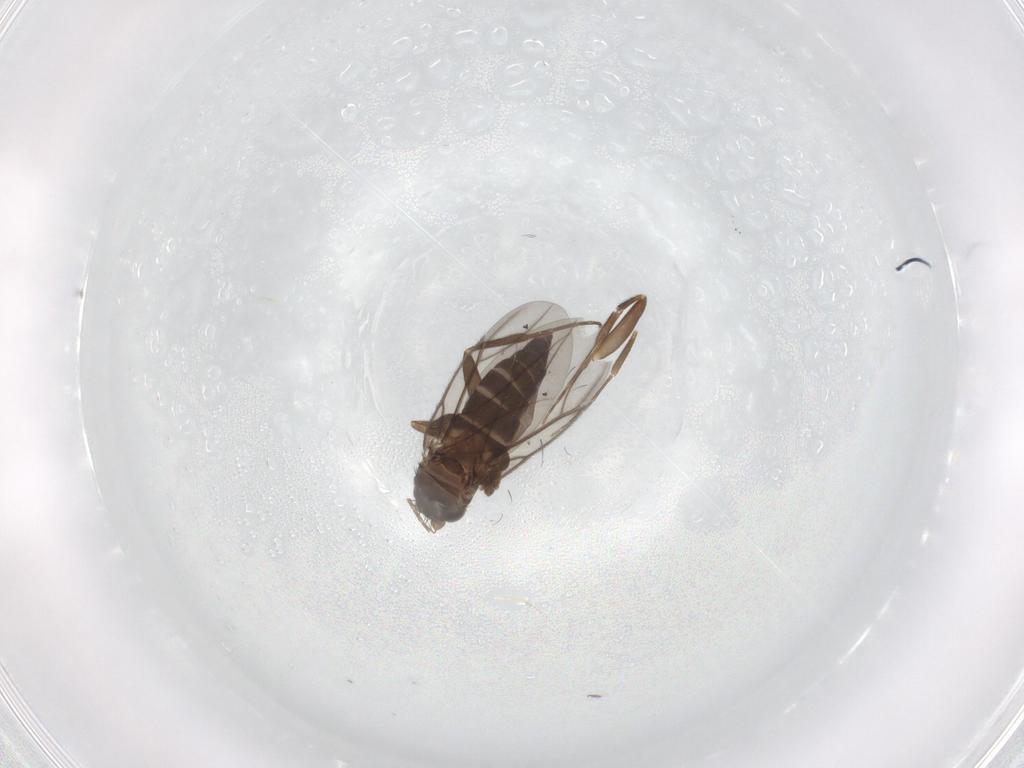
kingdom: Animalia
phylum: Arthropoda
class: Insecta
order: Diptera
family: Phoridae
